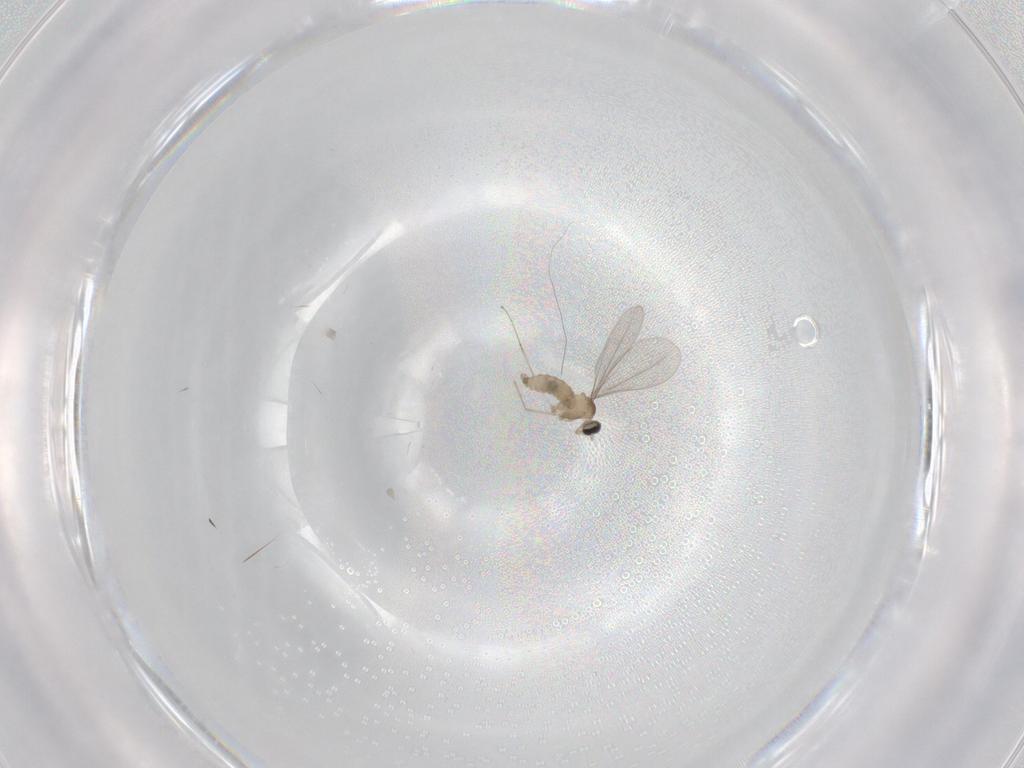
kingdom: Animalia
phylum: Arthropoda
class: Insecta
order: Diptera
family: Cecidomyiidae
